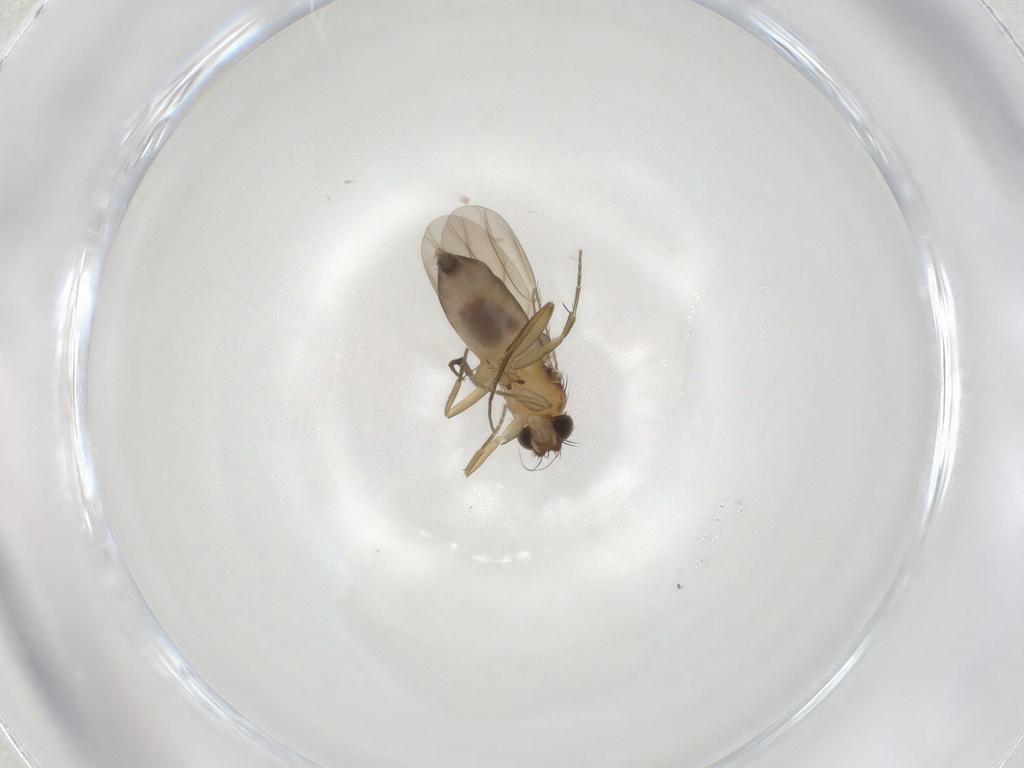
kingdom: Animalia
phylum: Arthropoda
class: Insecta
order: Diptera
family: Phoridae
